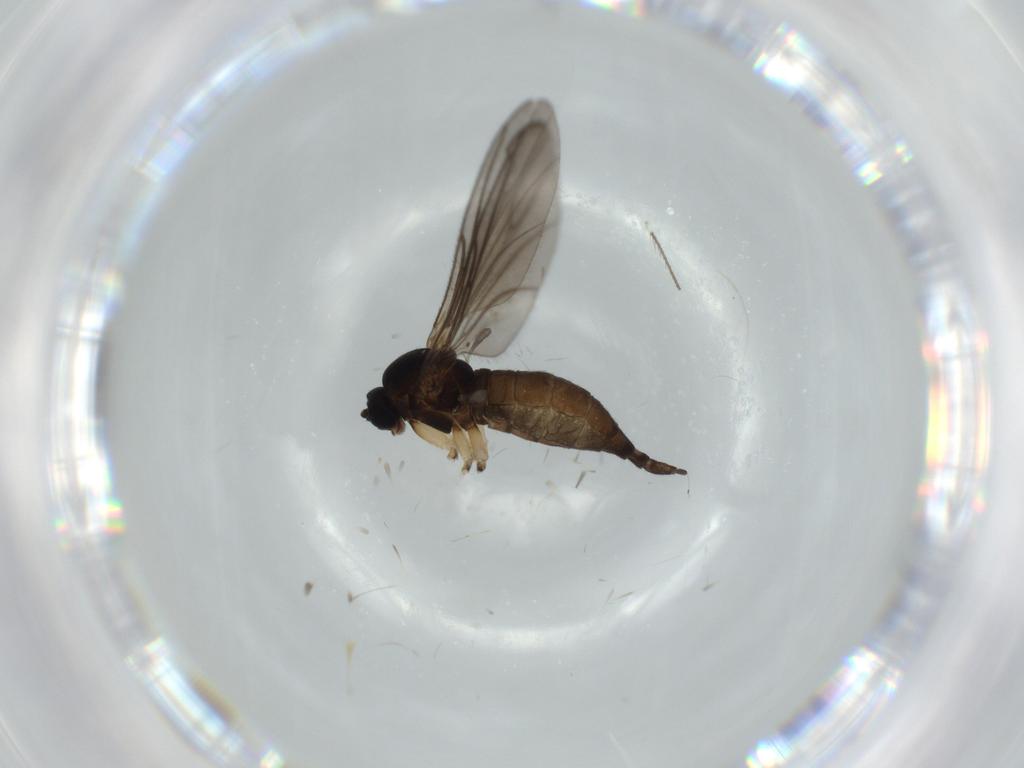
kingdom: Animalia
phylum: Arthropoda
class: Insecta
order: Diptera
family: Sciaridae
